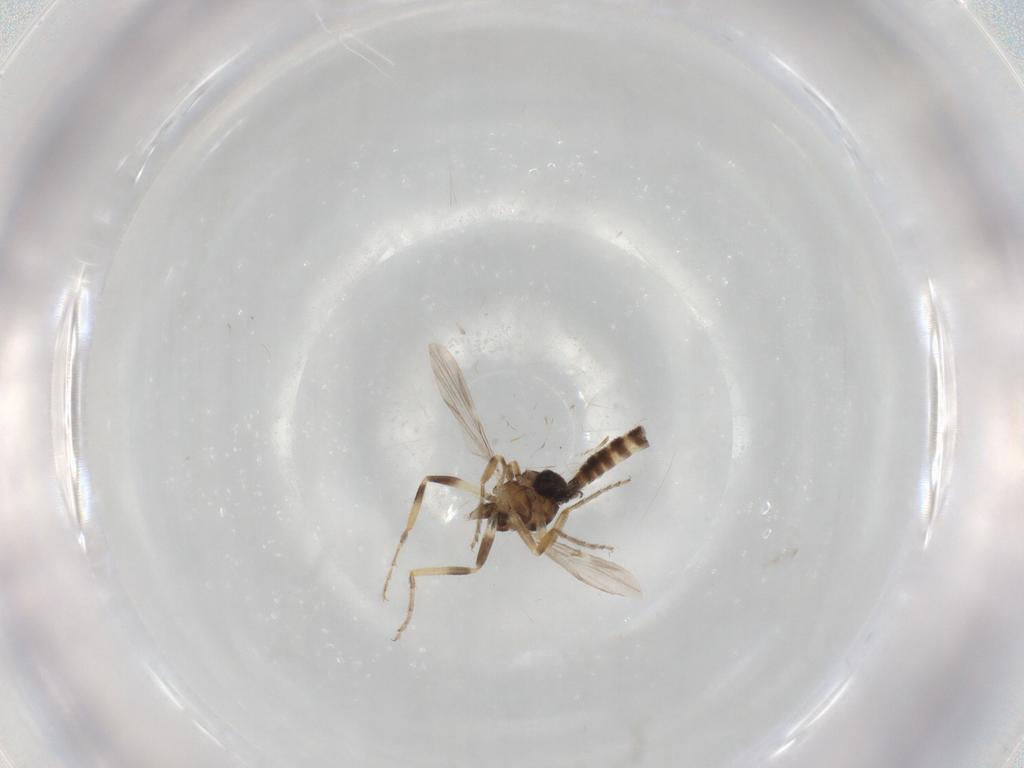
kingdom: Animalia
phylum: Arthropoda
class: Insecta
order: Diptera
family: Ceratopogonidae
